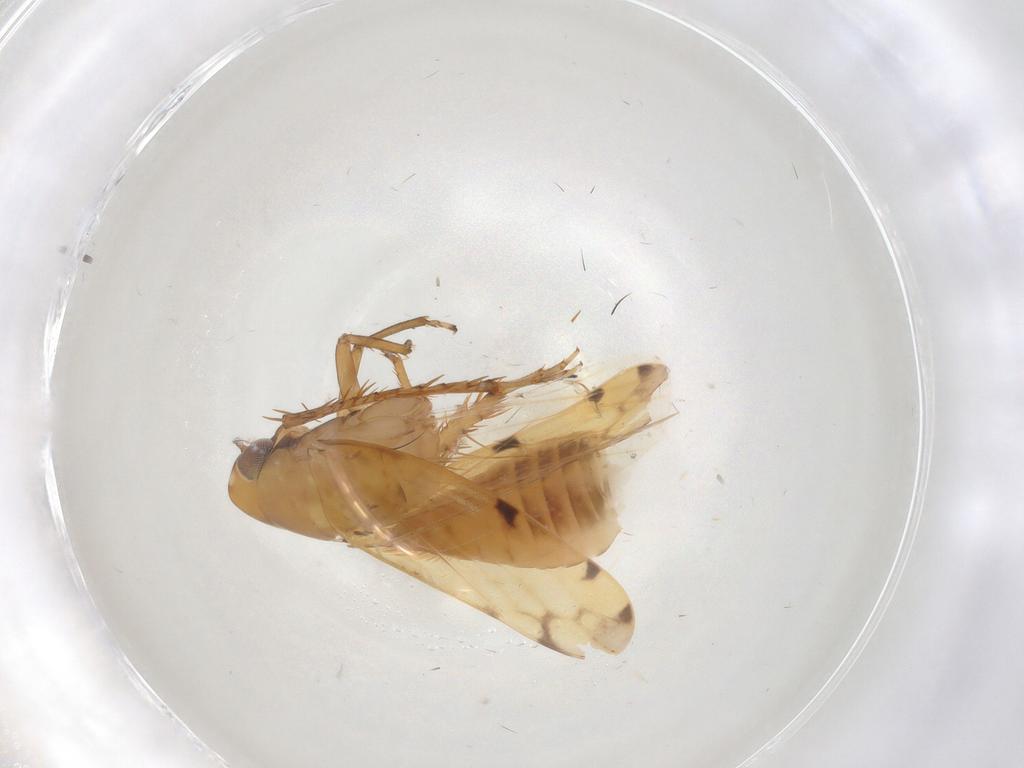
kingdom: Animalia
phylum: Arthropoda
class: Insecta
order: Hemiptera
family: Cicadellidae
